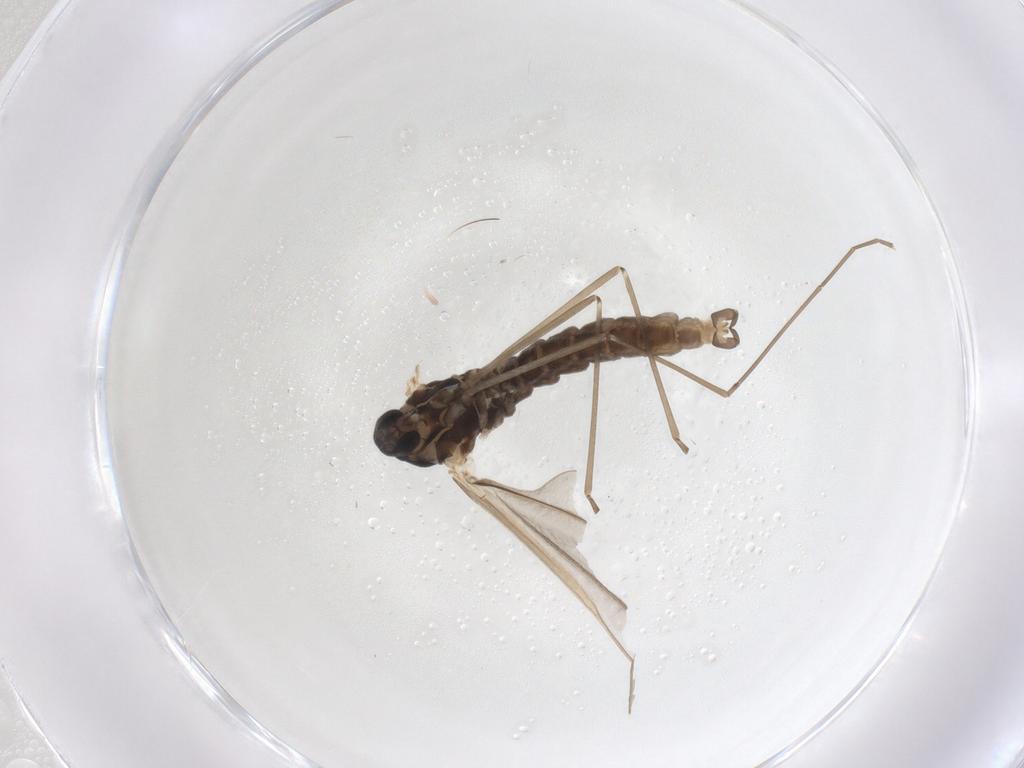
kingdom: Animalia
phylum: Arthropoda
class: Insecta
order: Diptera
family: Cecidomyiidae
